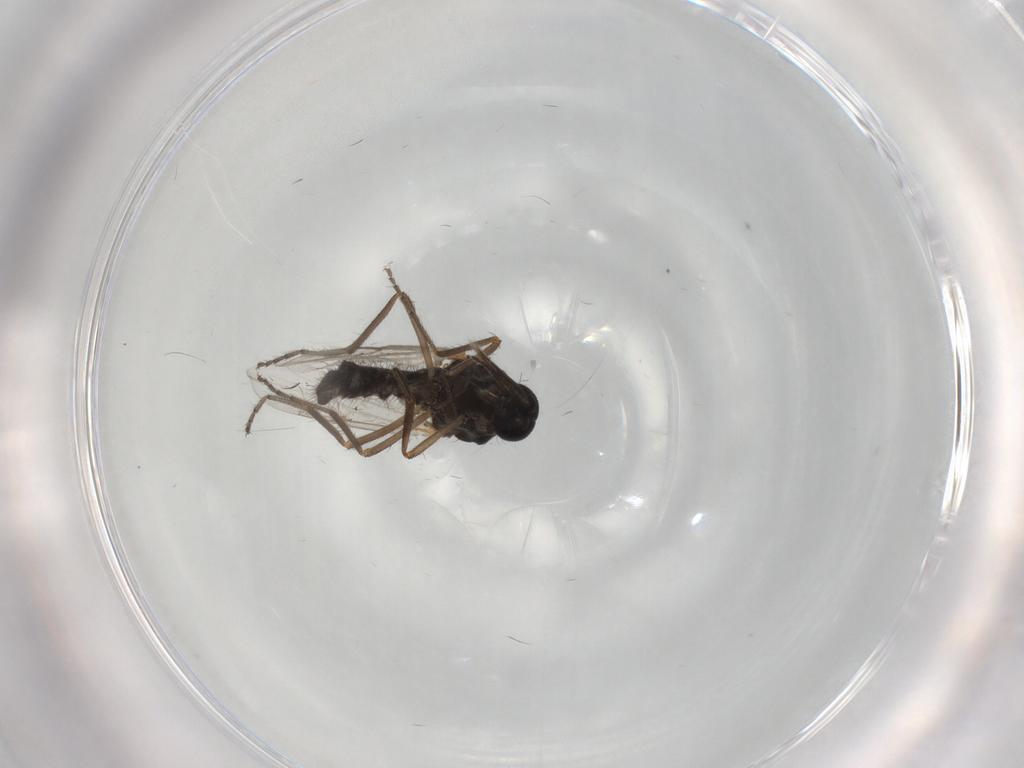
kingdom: Animalia
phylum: Arthropoda
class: Insecta
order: Diptera
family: Ceratopogonidae
